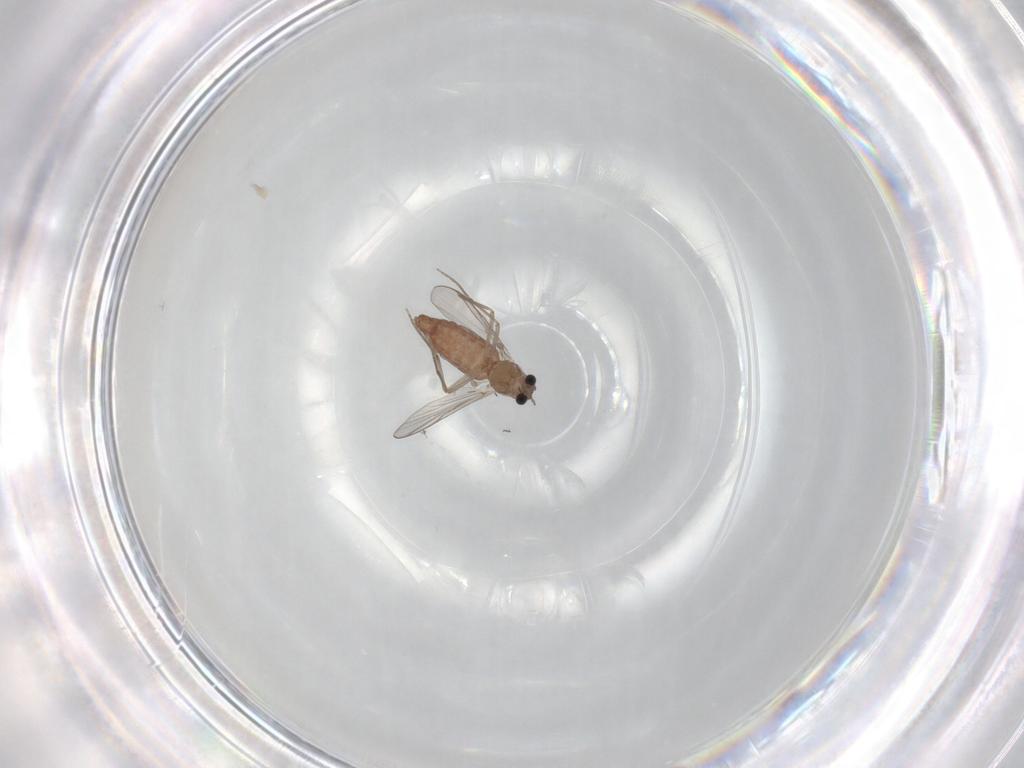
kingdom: Animalia
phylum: Arthropoda
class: Insecta
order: Diptera
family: Chironomidae
